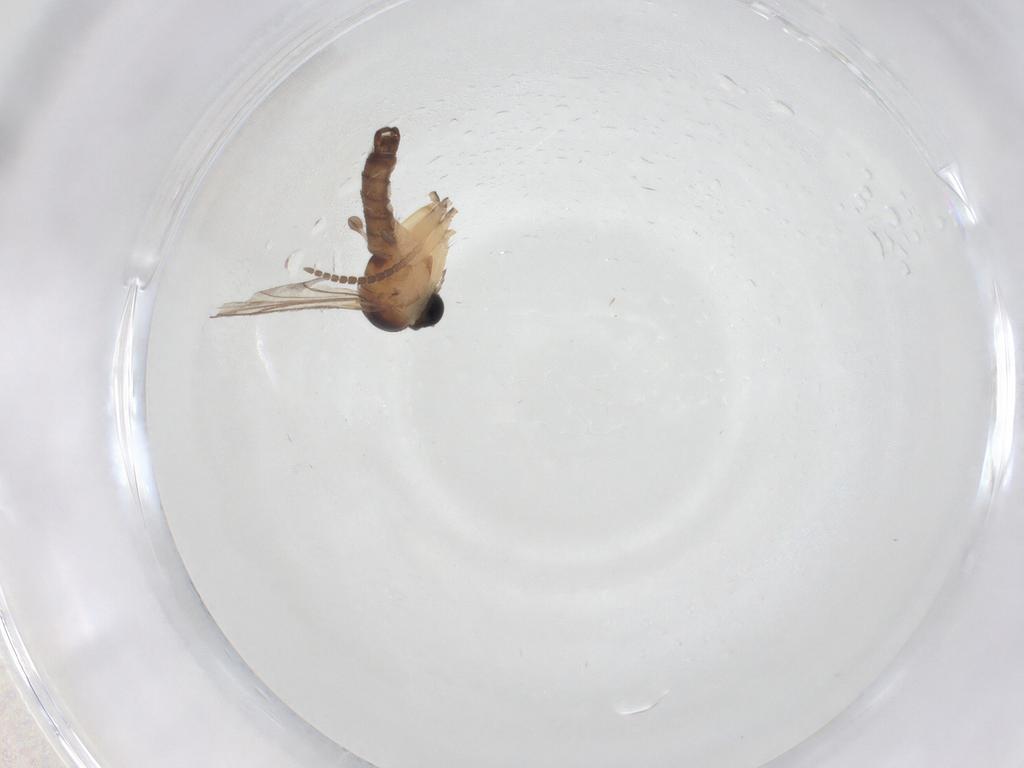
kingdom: Animalia
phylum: Arthropoda
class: Insecta
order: Diptera
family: Sciaridae
